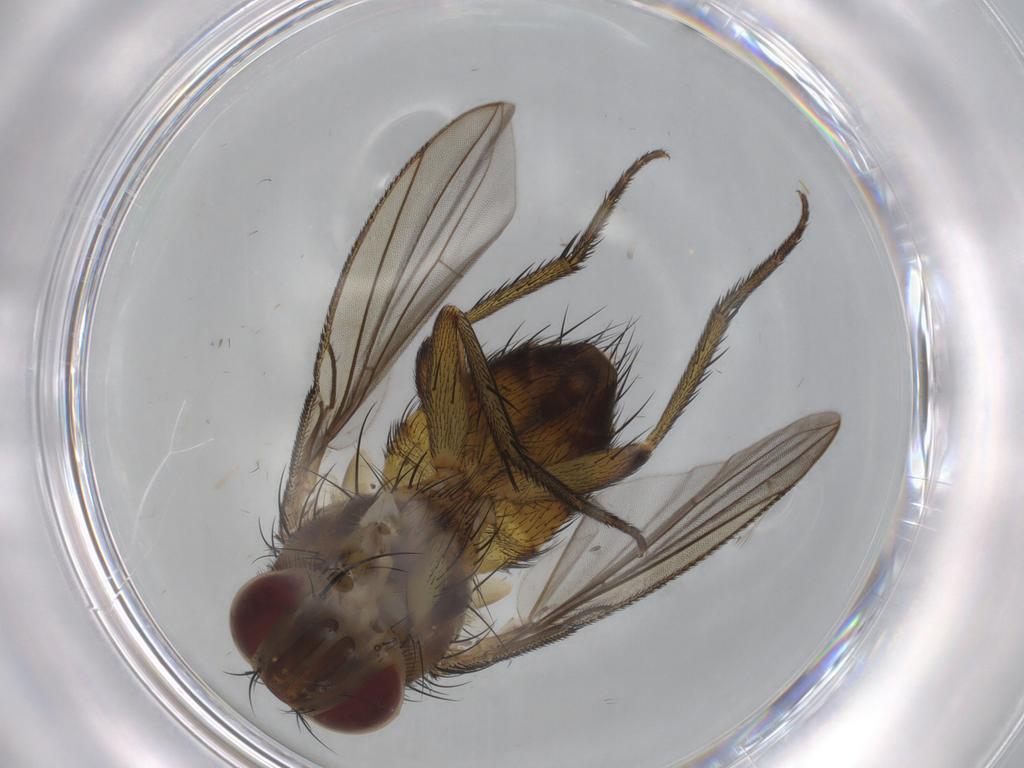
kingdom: Animalia
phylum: Arthropoda
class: Insecta
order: Diptera
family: Tachinidae
